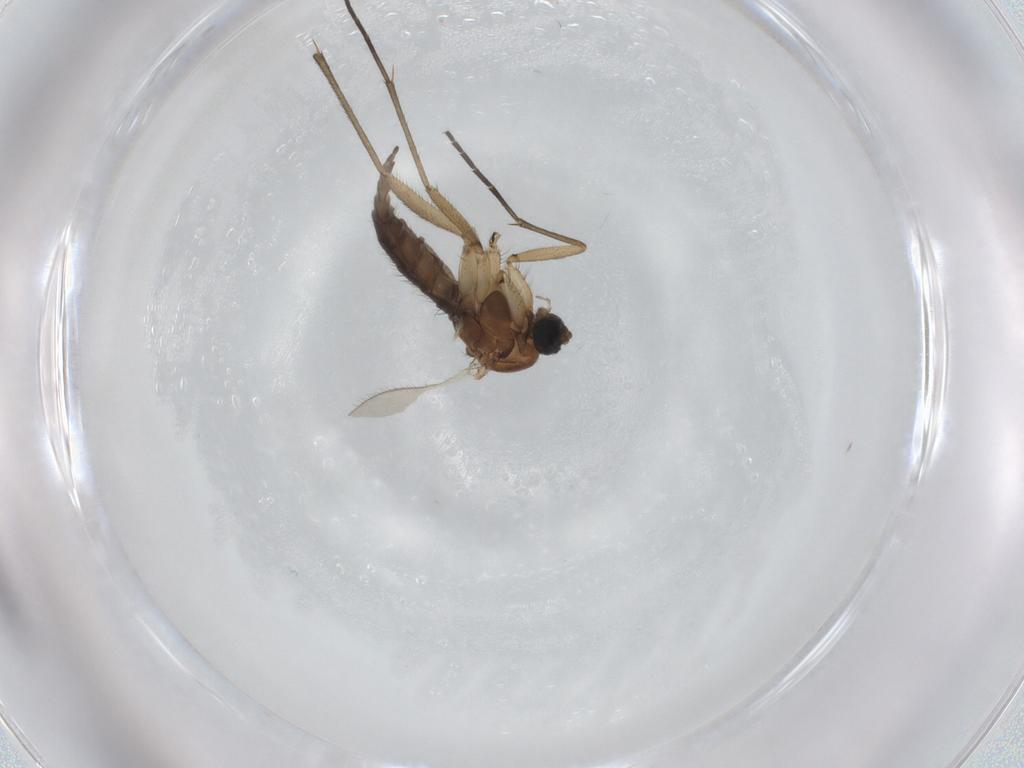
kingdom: Animalia
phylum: Arthropoda
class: Insecta
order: Diptera
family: Sciaridae
